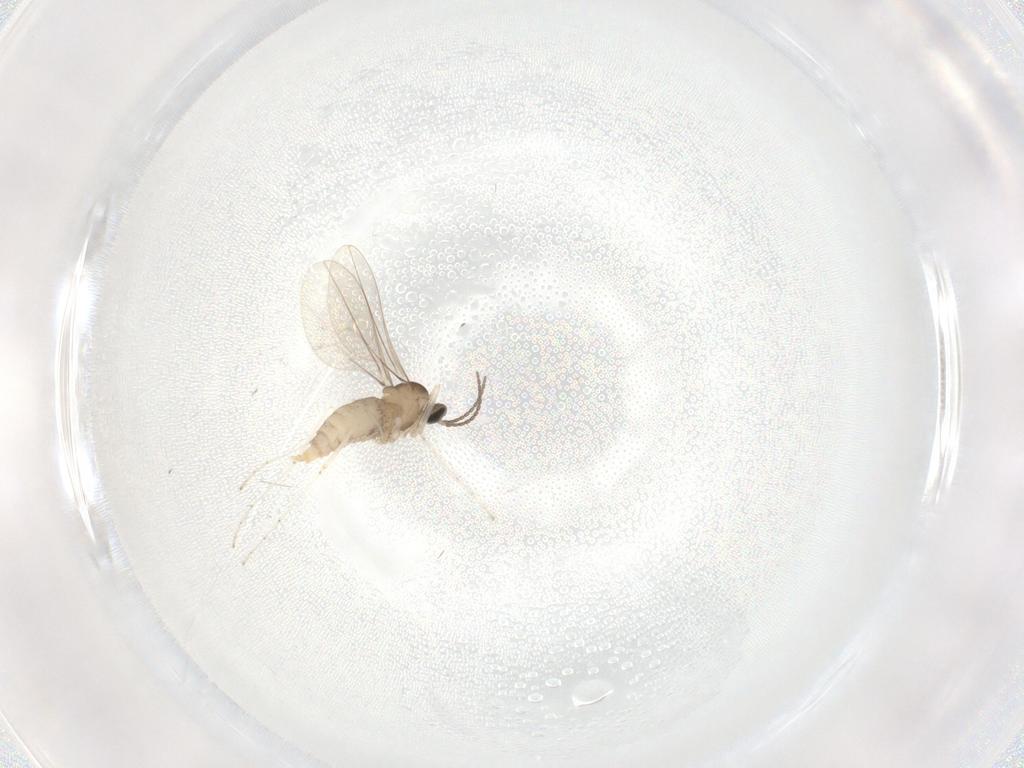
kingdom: Animalia
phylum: Arthropoda
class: Insecta
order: Diptera
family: Cecidomyiidae
